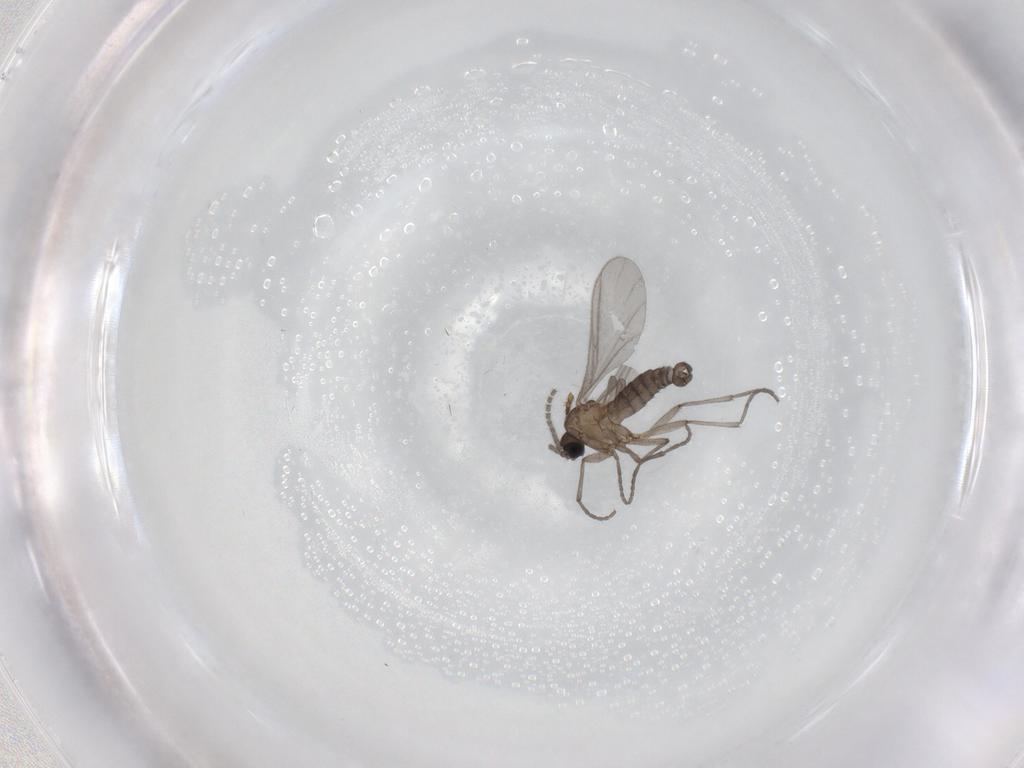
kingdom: Animalia
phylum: Arthropoda
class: Insecta
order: Diptera
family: Sciaridae
